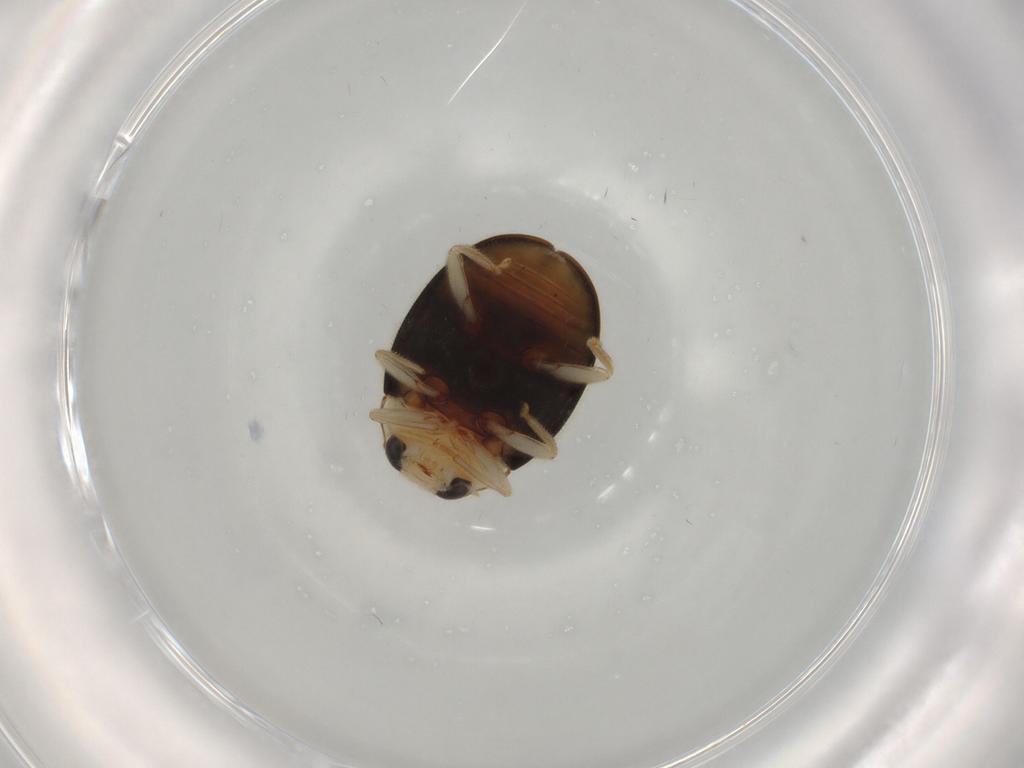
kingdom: Animalia
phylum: Arthropoda
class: Insecta
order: Coleoptera
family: Coccinellidae
